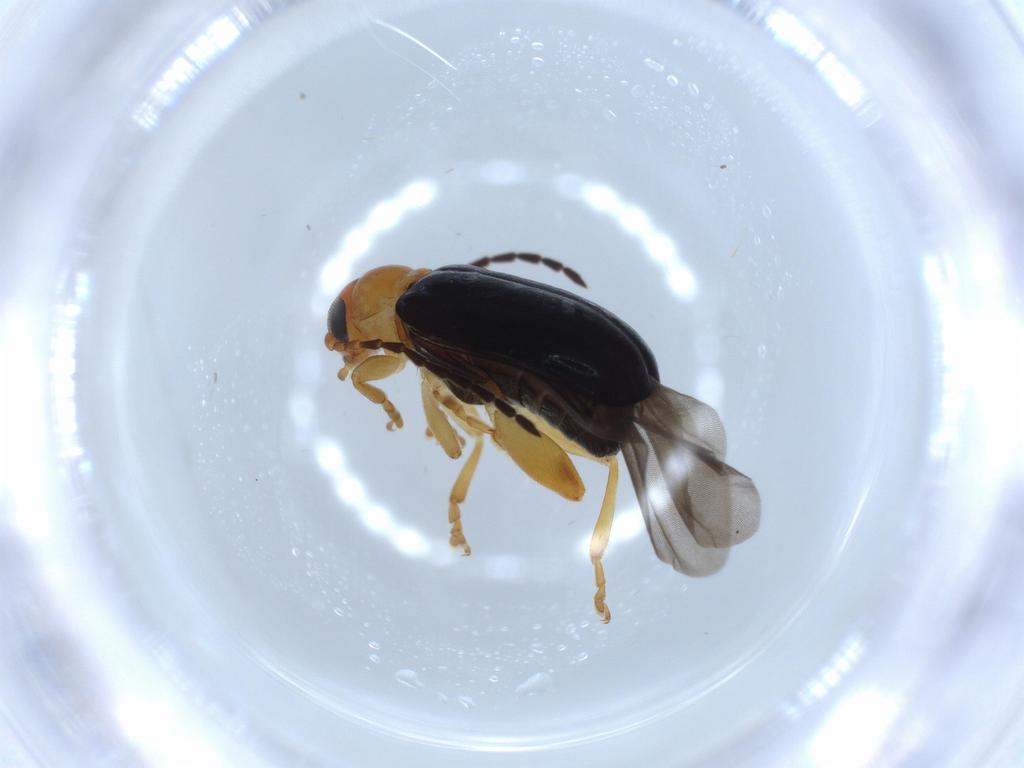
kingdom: Animalia
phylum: Arthropoda
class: Insecta
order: Coleoptera
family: Chrysomelidae
